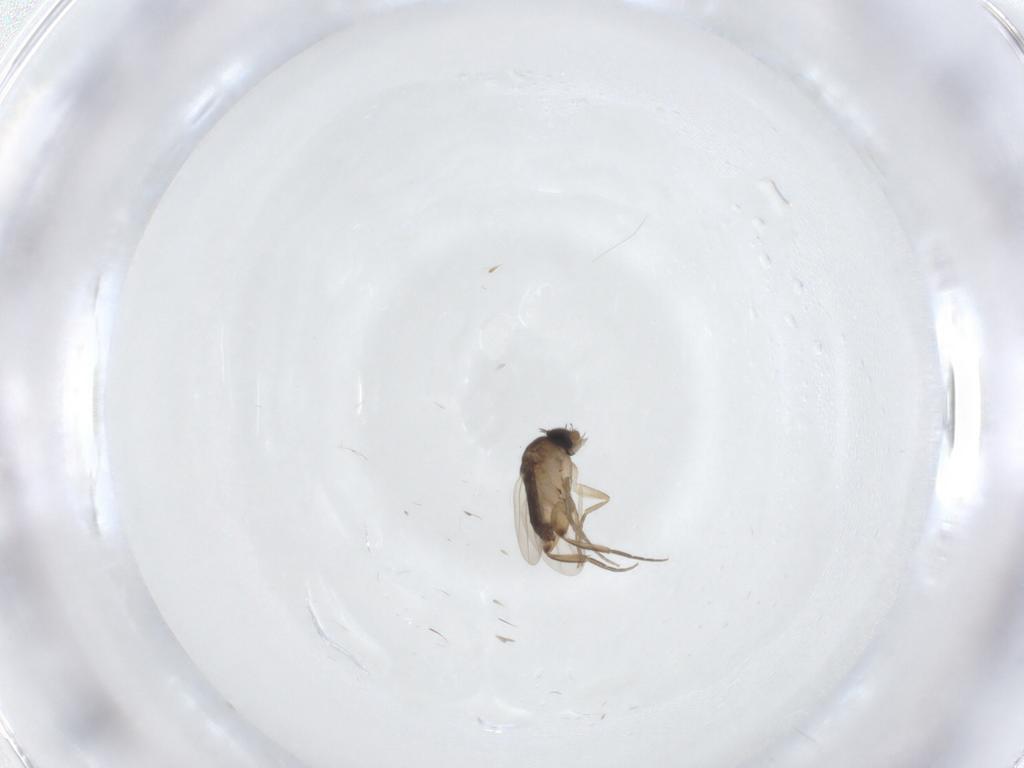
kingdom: Animalia
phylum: Arthropoda
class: Insecta
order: Diptera
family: Phoridae
